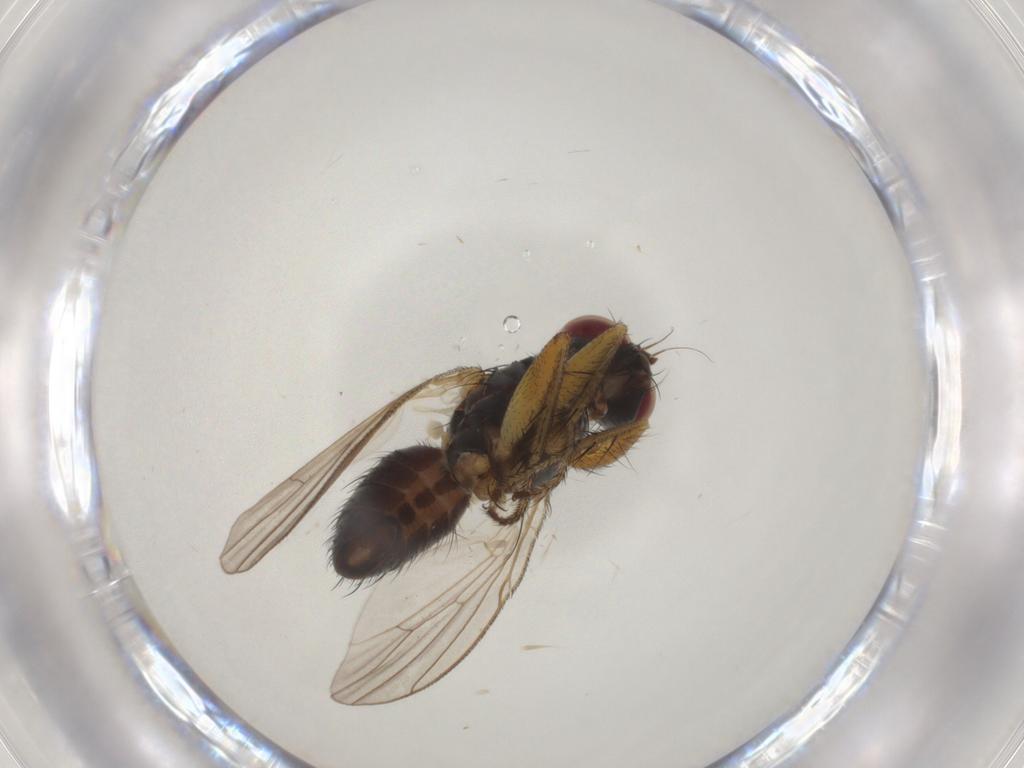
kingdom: Animalia
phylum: Arthropoda
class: Insecta
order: Diptera
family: Muscidae
